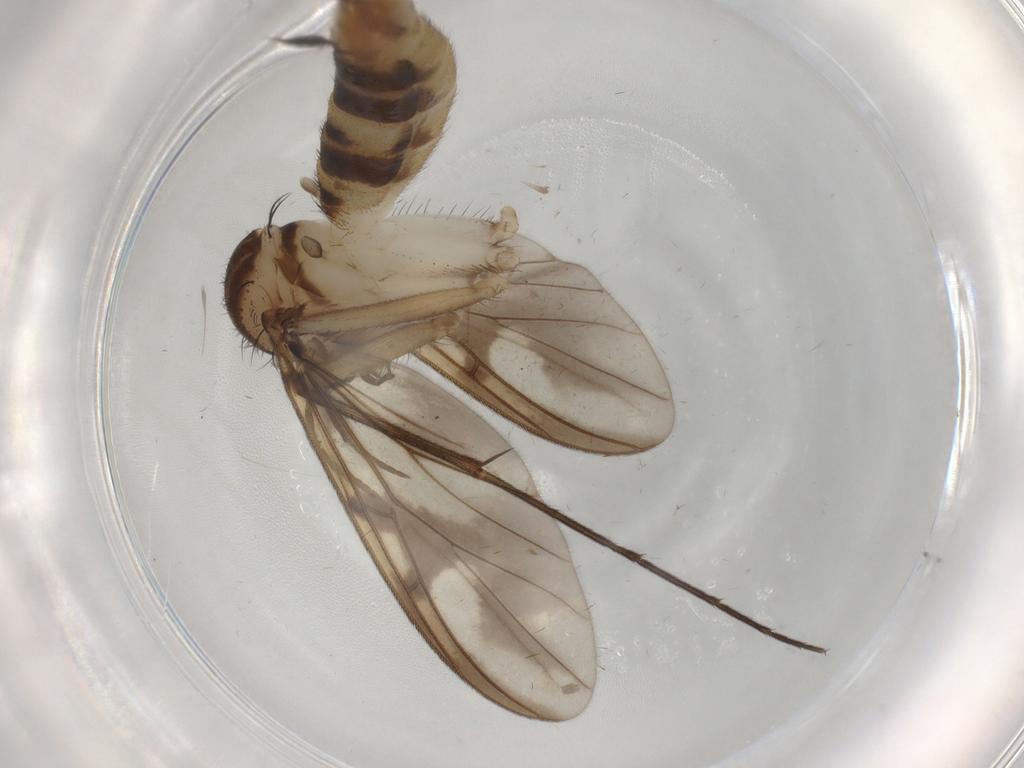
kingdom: Animalia
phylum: Arthropoda
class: Insecta
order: Diptera
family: Mycetophilidae
